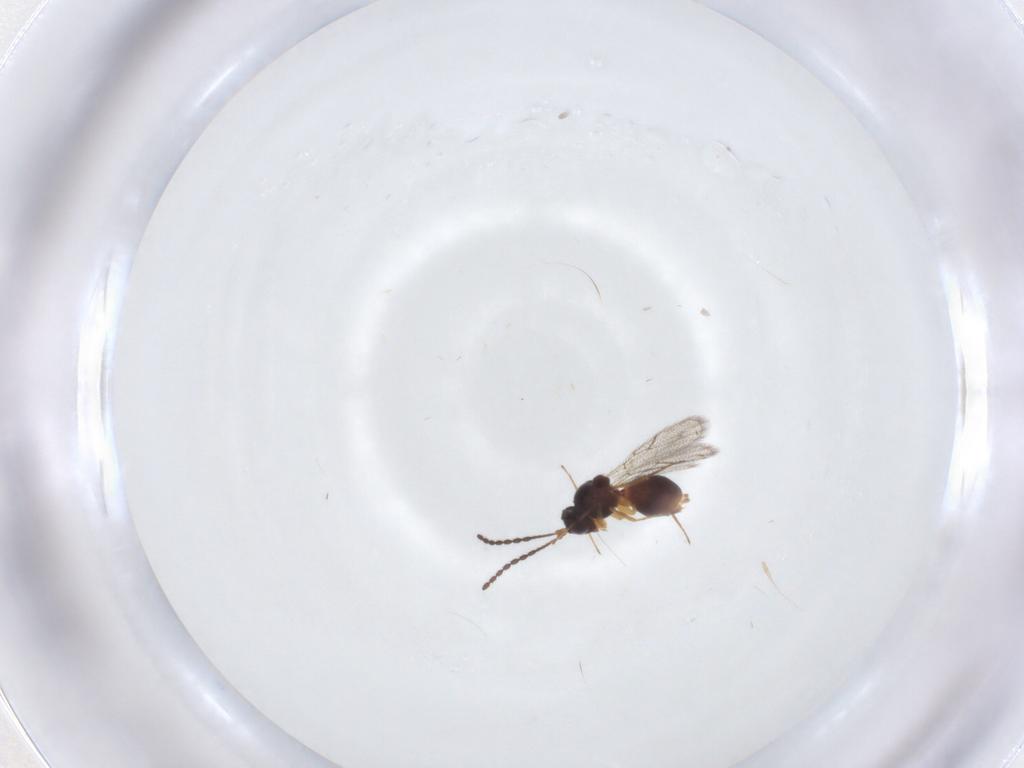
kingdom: Animalia
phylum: Arthropoda
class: Insecta
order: Hymenoptera
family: Figitidae
